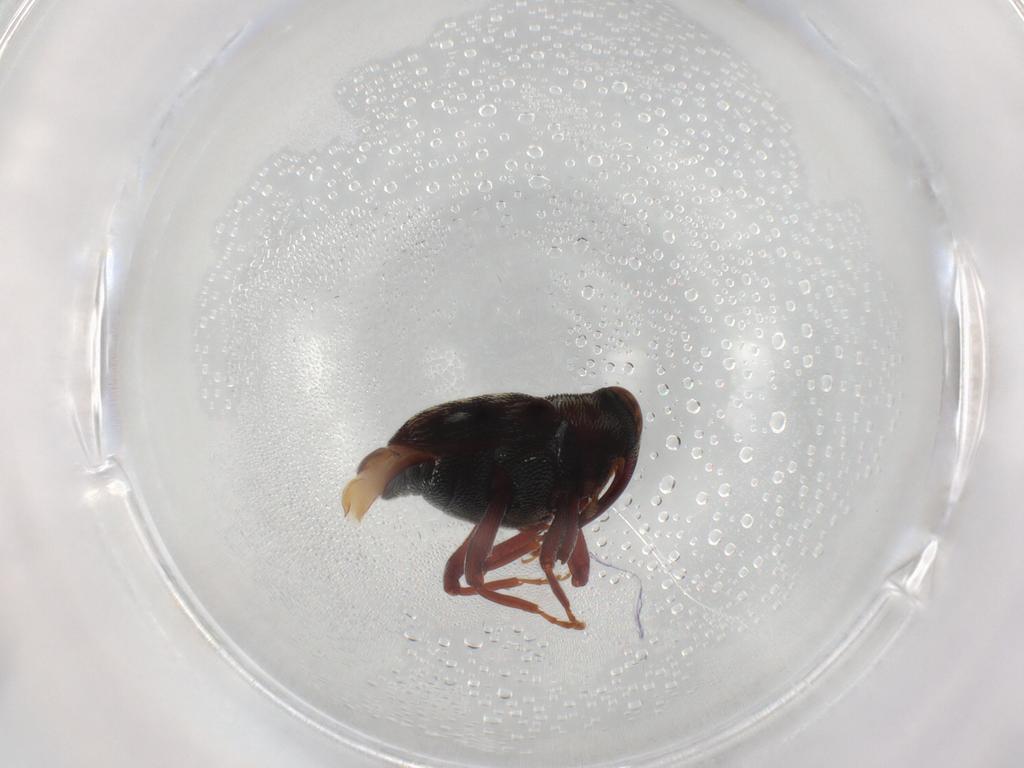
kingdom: Animalia
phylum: Arthropoda
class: Insecta
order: Coleoptera
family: Curculionidae
